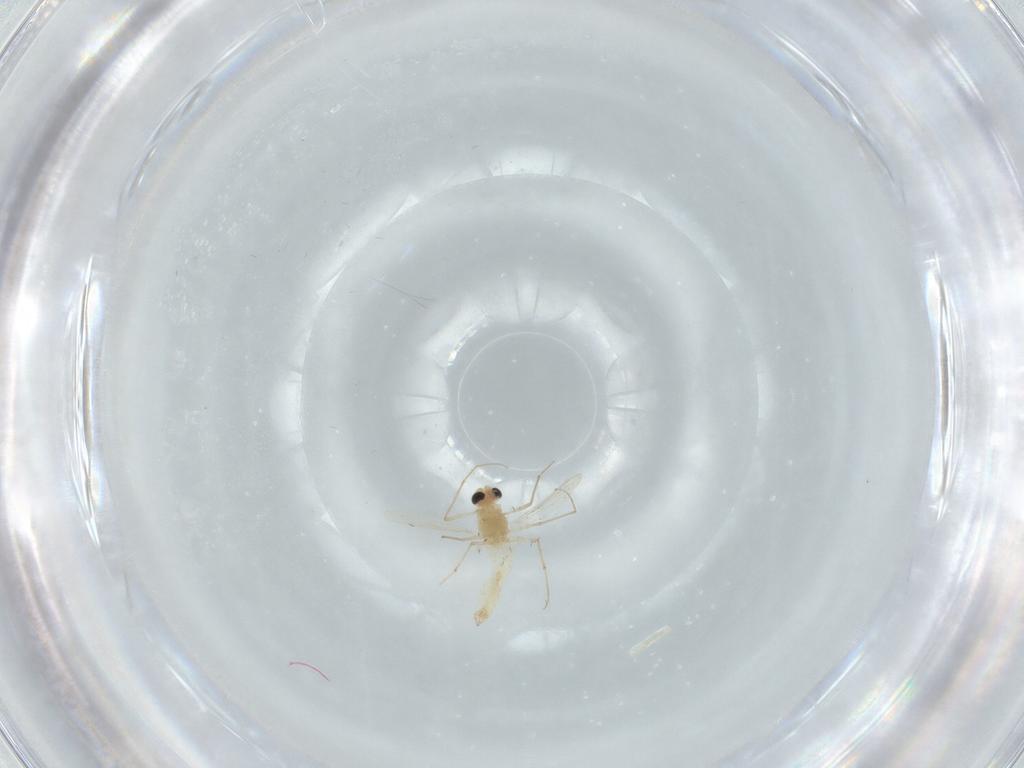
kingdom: Animalia
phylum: Arthropoda
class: Insecta
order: Diptera
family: Chironomidae
